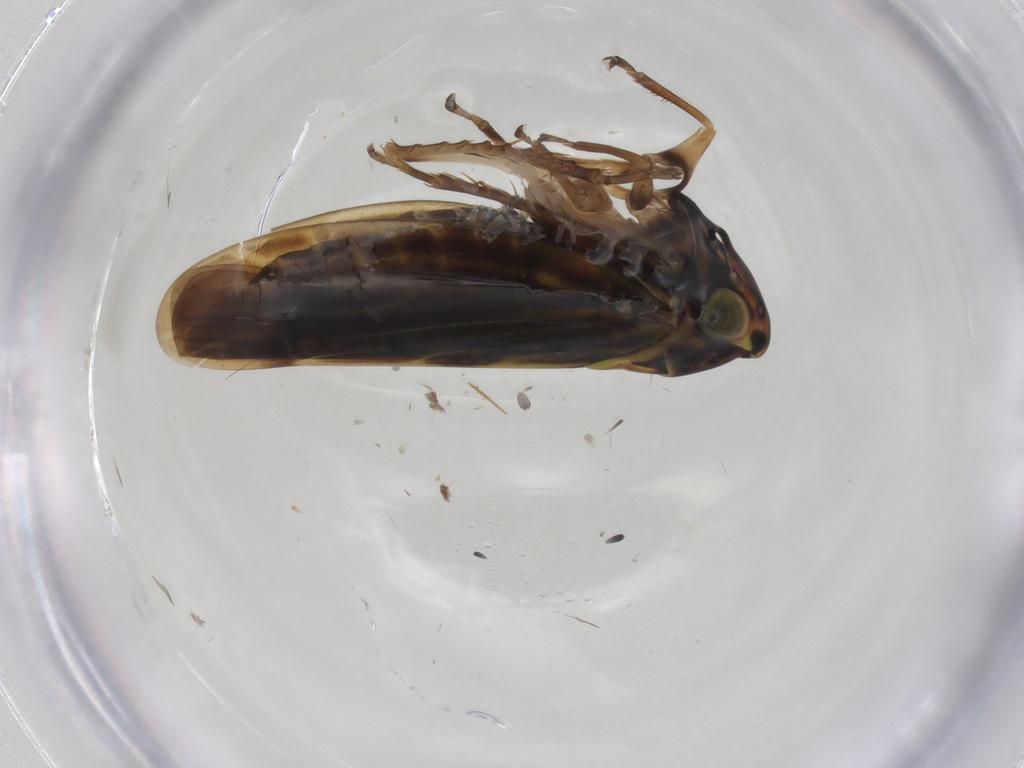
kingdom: Animalia
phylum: Arthropoda
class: Insecta
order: Hemiptera
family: Cicadellidae
